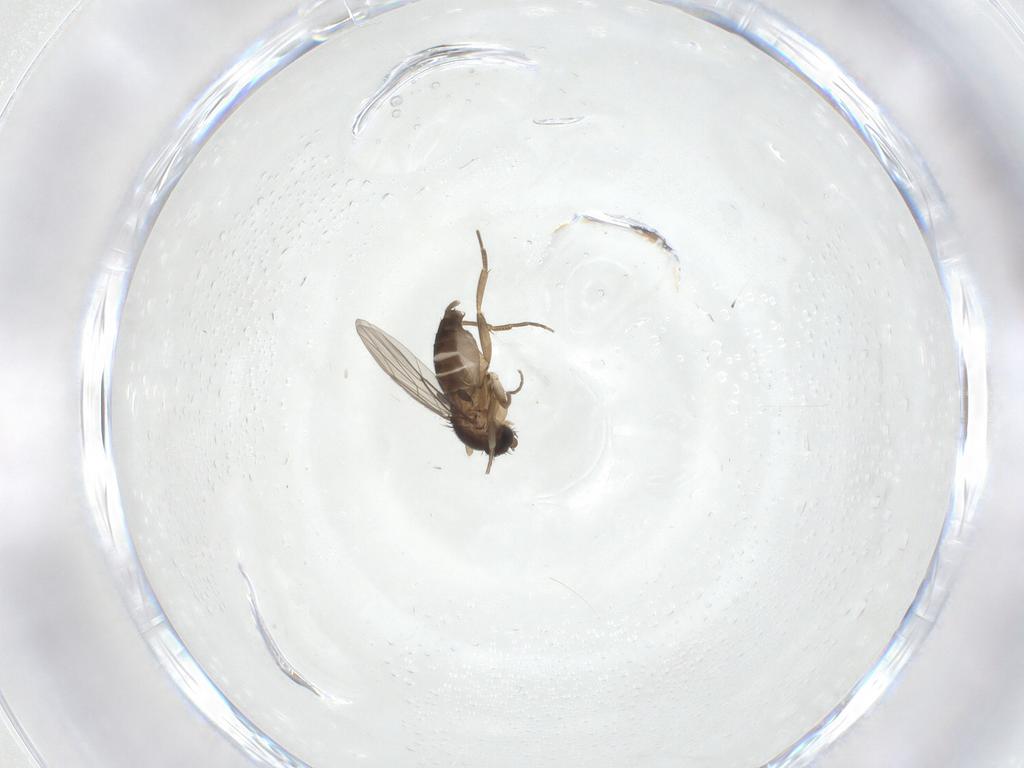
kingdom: Animalia
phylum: Arthropoda
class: Insecta
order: Diptera
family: Phoridae
